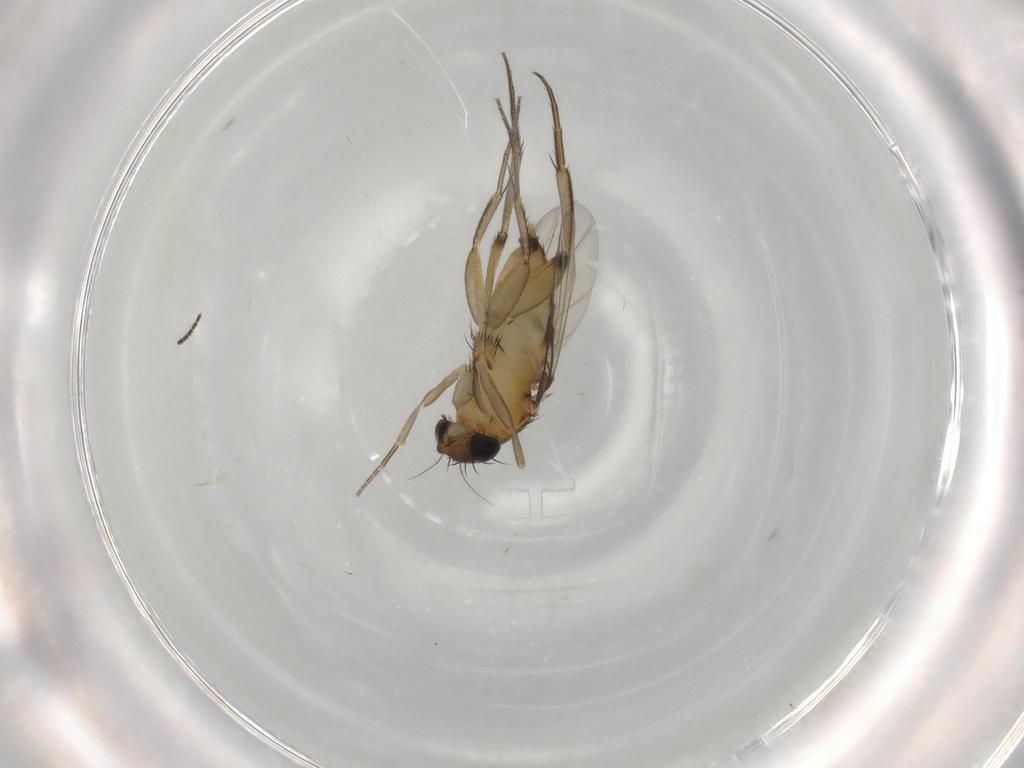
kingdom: Animalia
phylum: Arthropoda
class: Insecta
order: Diptera
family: Phoridae
